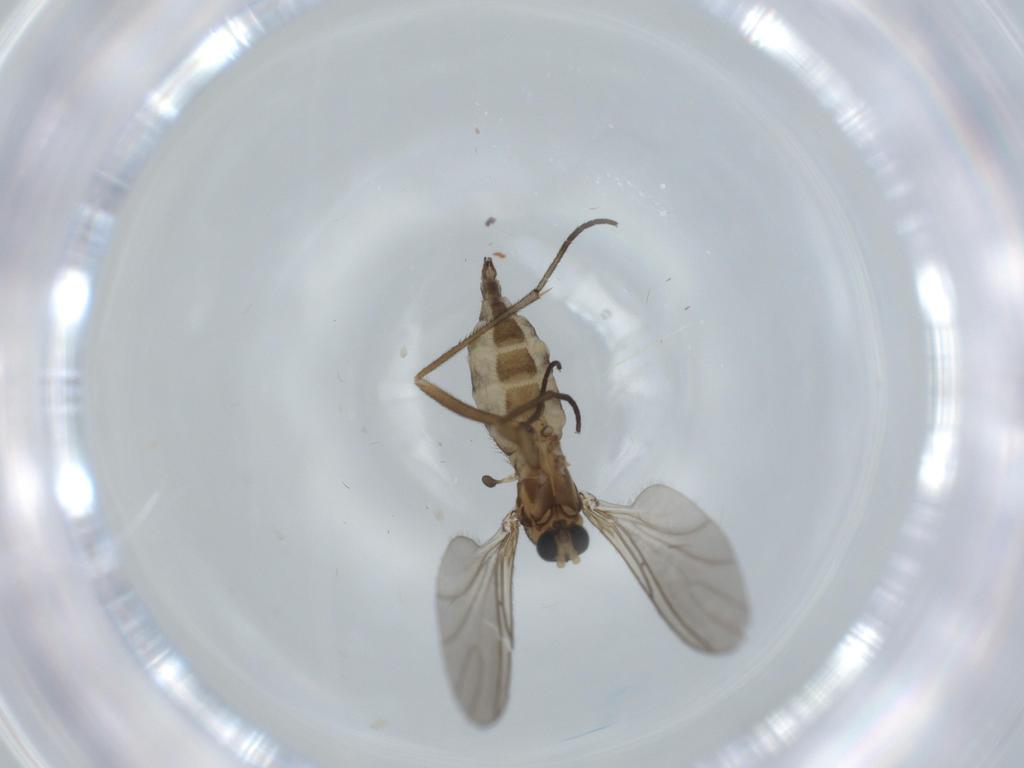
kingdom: Animalia
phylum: Arthropoda
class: Insecta
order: Diptera
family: Sciaridae
